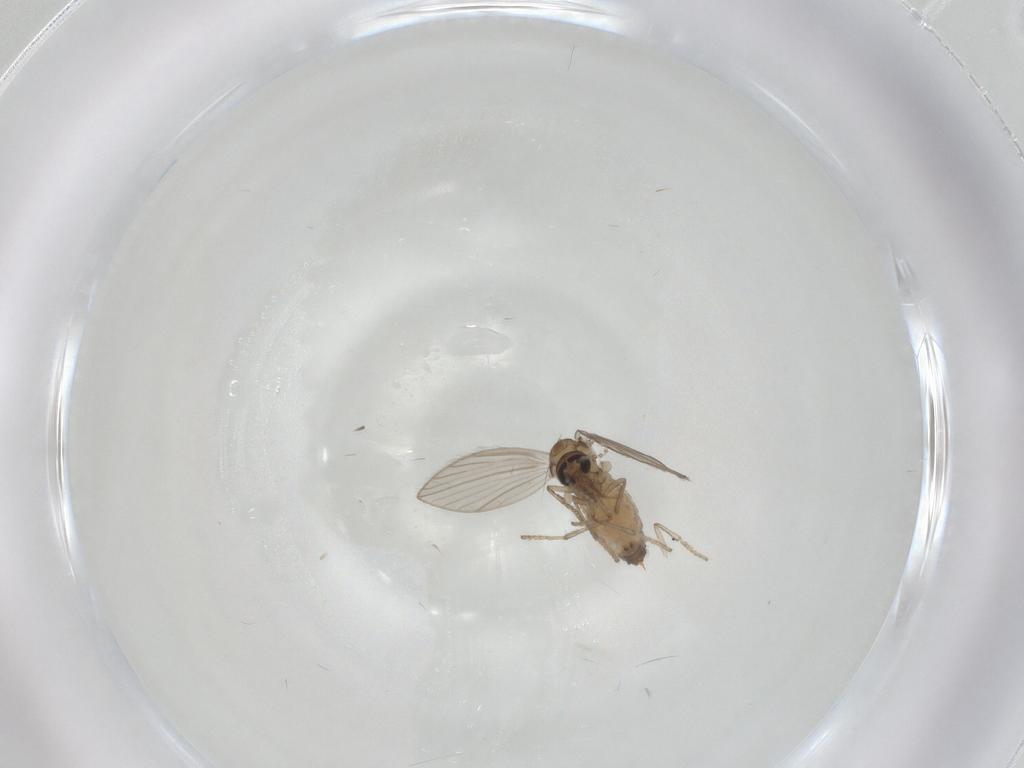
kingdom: Animalia
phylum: Arthropoda
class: Insecta
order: Diptera
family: Psychodidae
